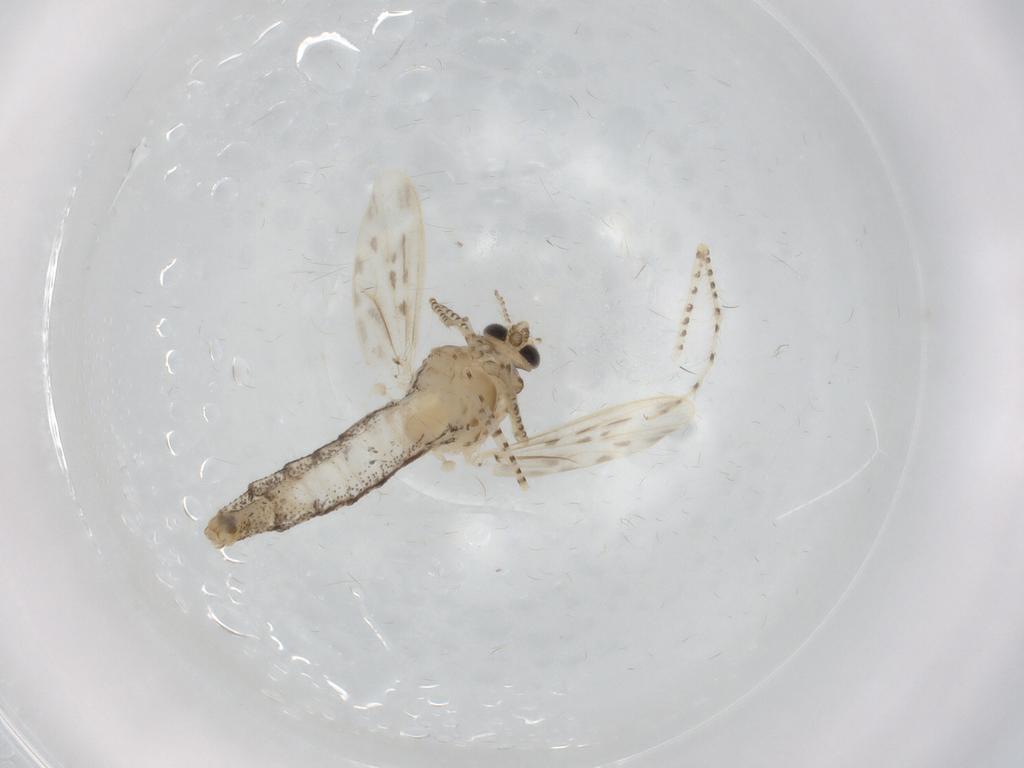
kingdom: Animalia
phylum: Arthropoda
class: Insecta
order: Diptera
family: Chaoboridae
